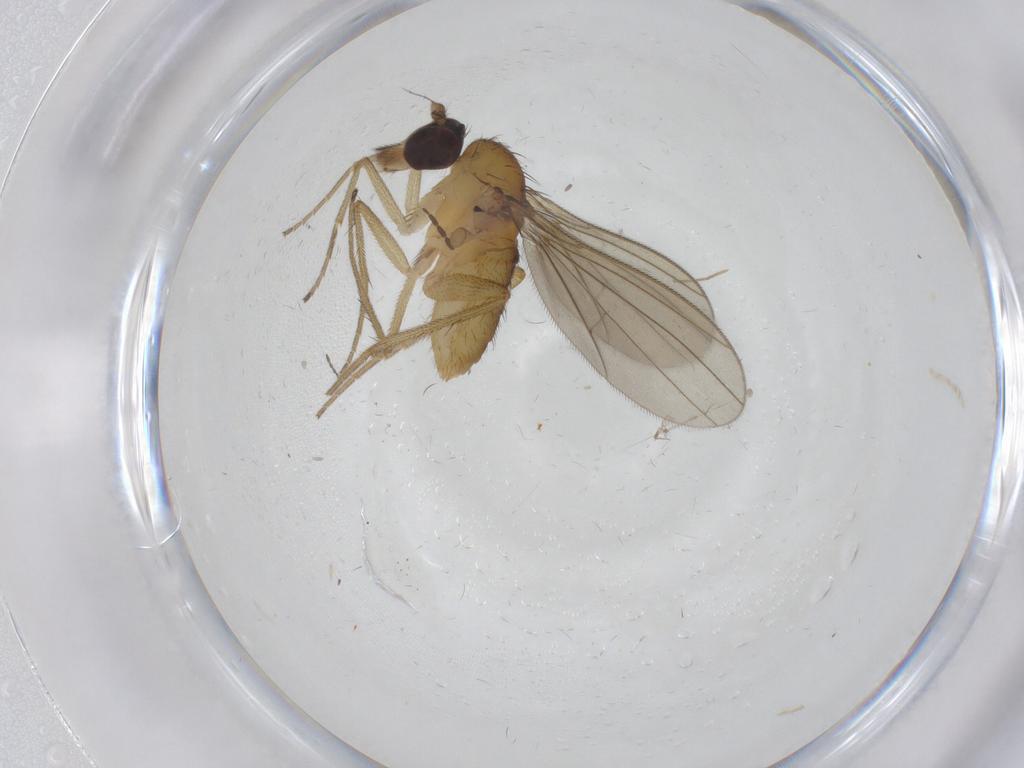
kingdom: Animalia
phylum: Arthropoda
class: Insecta
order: Diptera
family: Dolichopodidae
